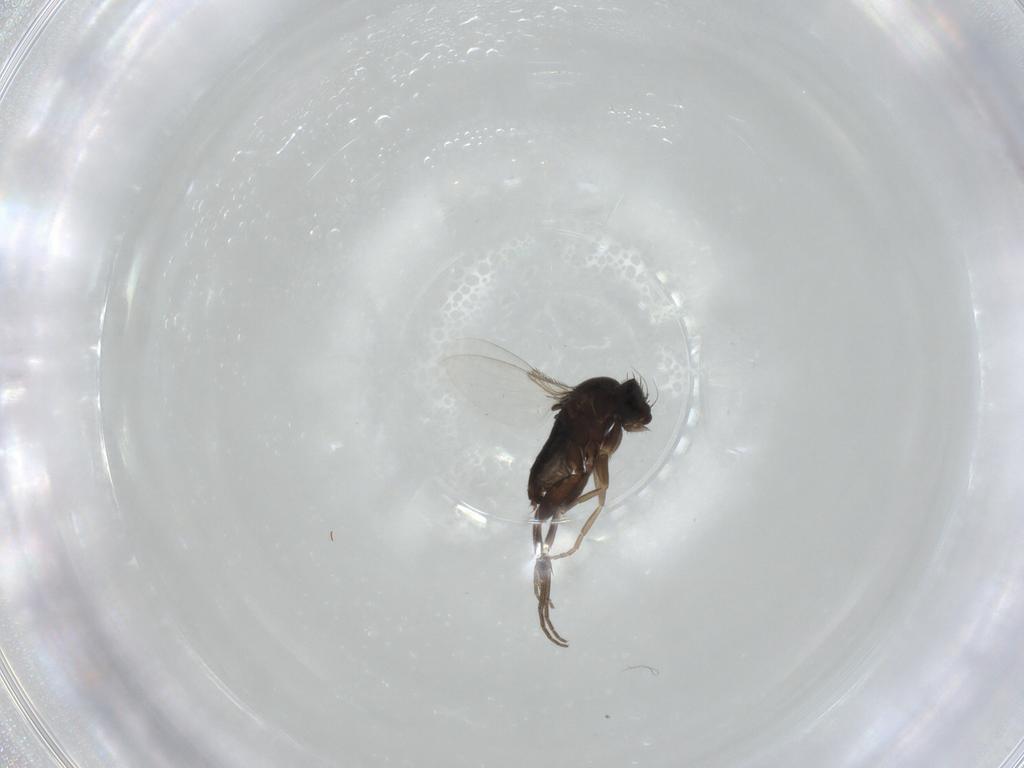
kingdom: Animalia
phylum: Arthropoda
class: Insecta
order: Diptera
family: Phoridae
